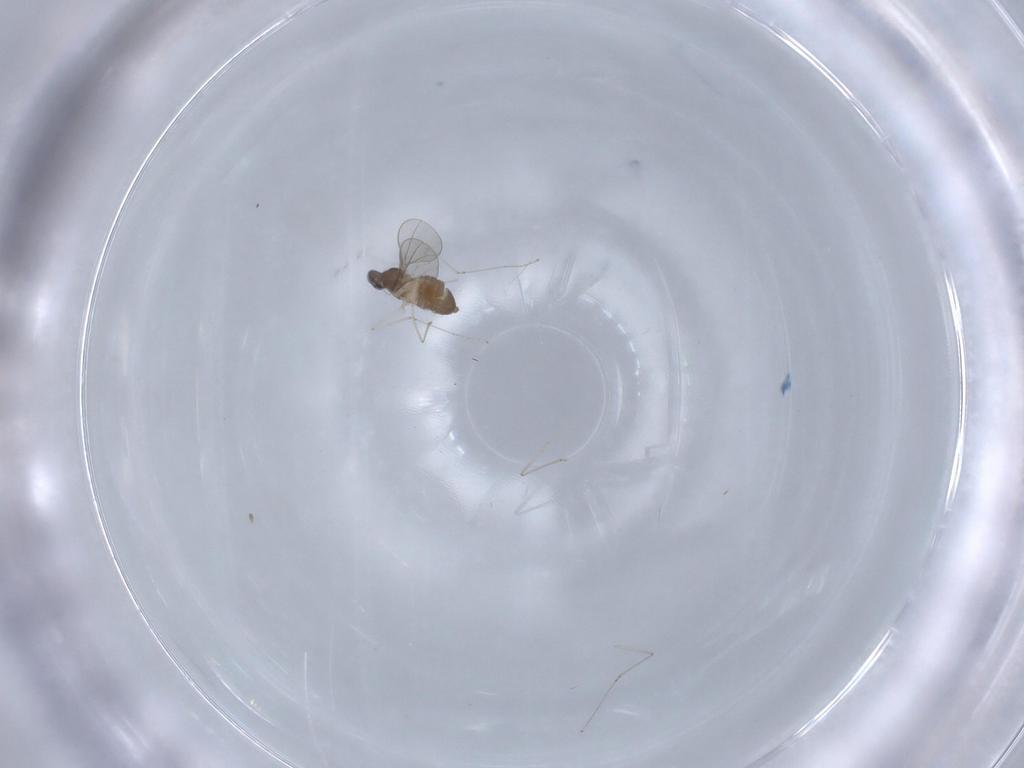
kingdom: Animalia
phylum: Arthropoda
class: Insecta
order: Diptera
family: Cecidomyiidae
